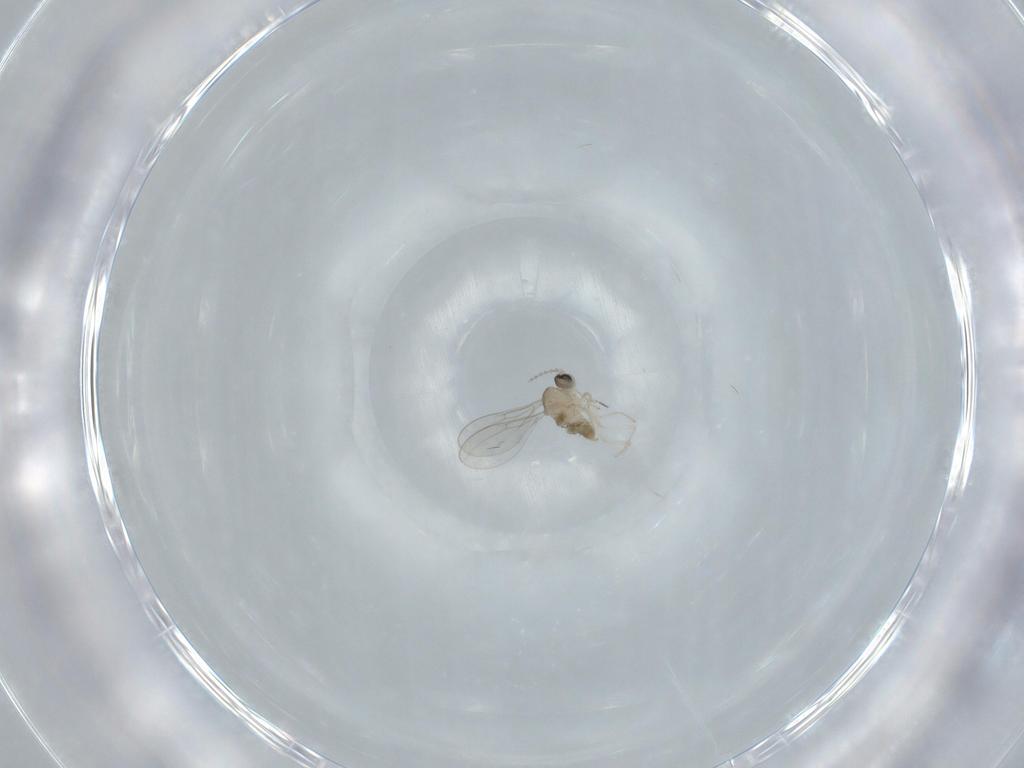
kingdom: Animalia
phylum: Arthropoda
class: Insecta
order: Diptera
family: Cecidomyiidae
